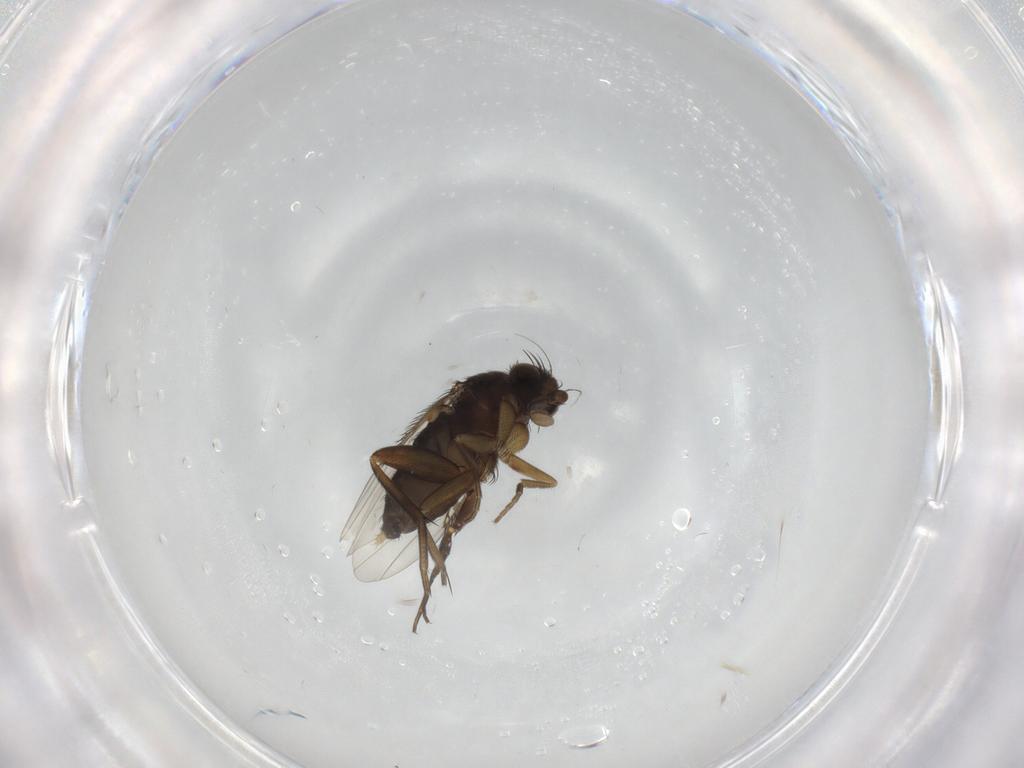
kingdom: Animalia
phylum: Arthropoda
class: Insecta
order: Diptera
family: Phoridae
